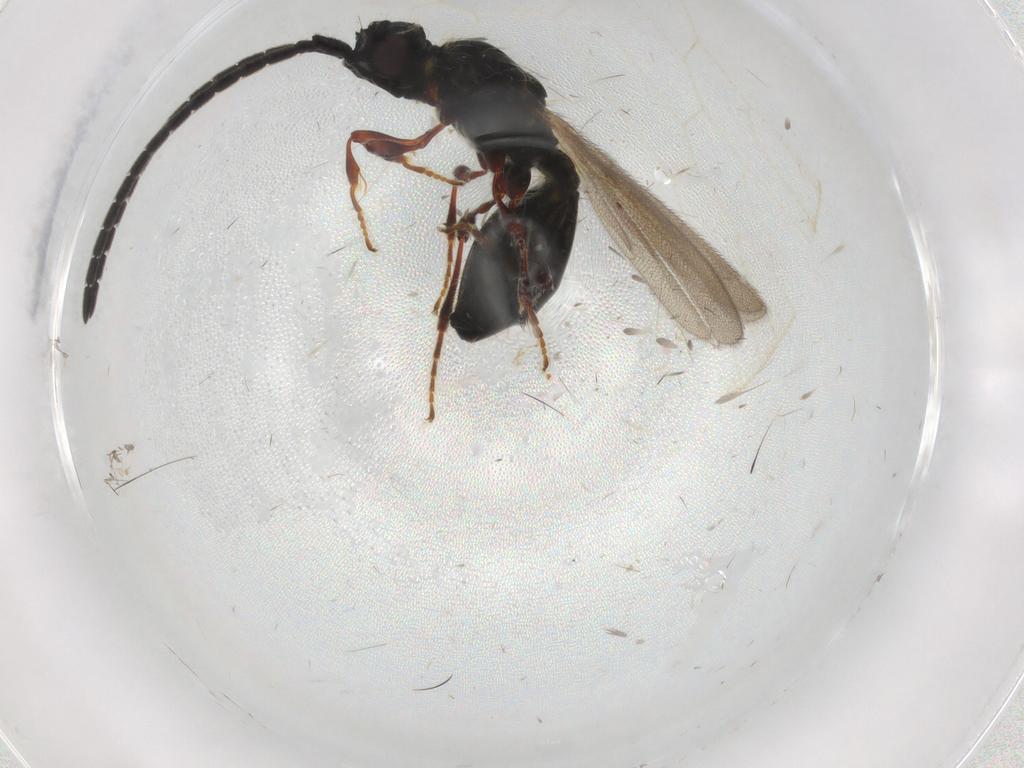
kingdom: Animalia
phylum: Arthropoda
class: Insecta
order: Hymenoptera
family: Diapriidae
